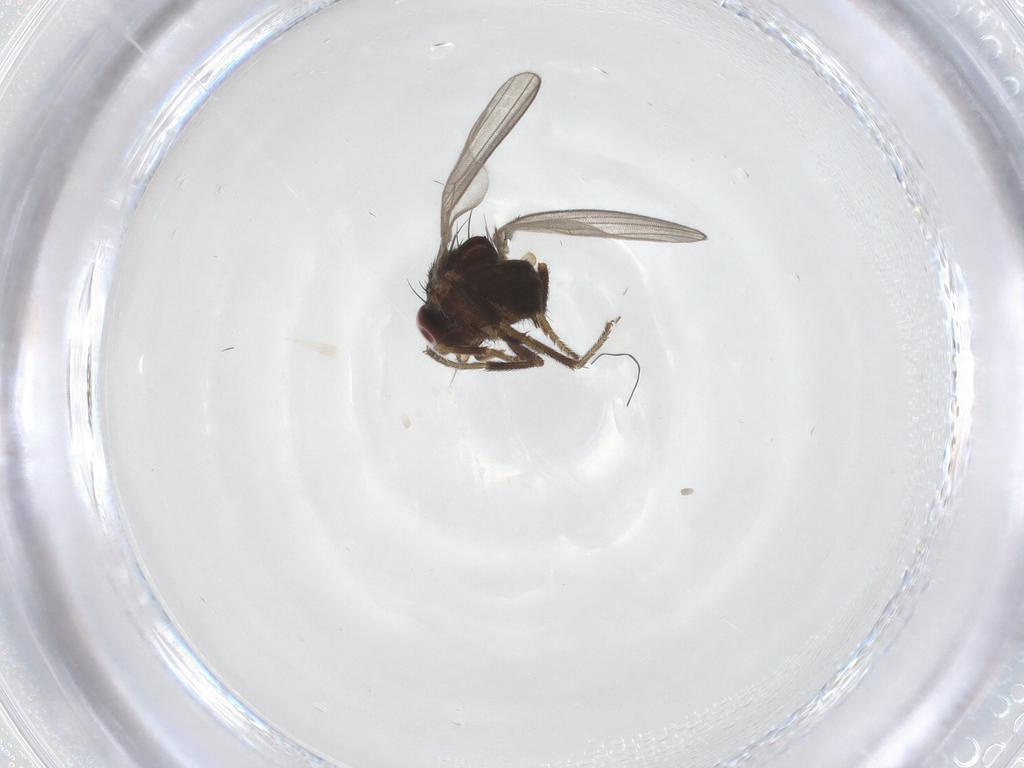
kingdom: Animalia
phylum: Arthropoda
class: Insecta
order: Diptera
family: Milichiidae
